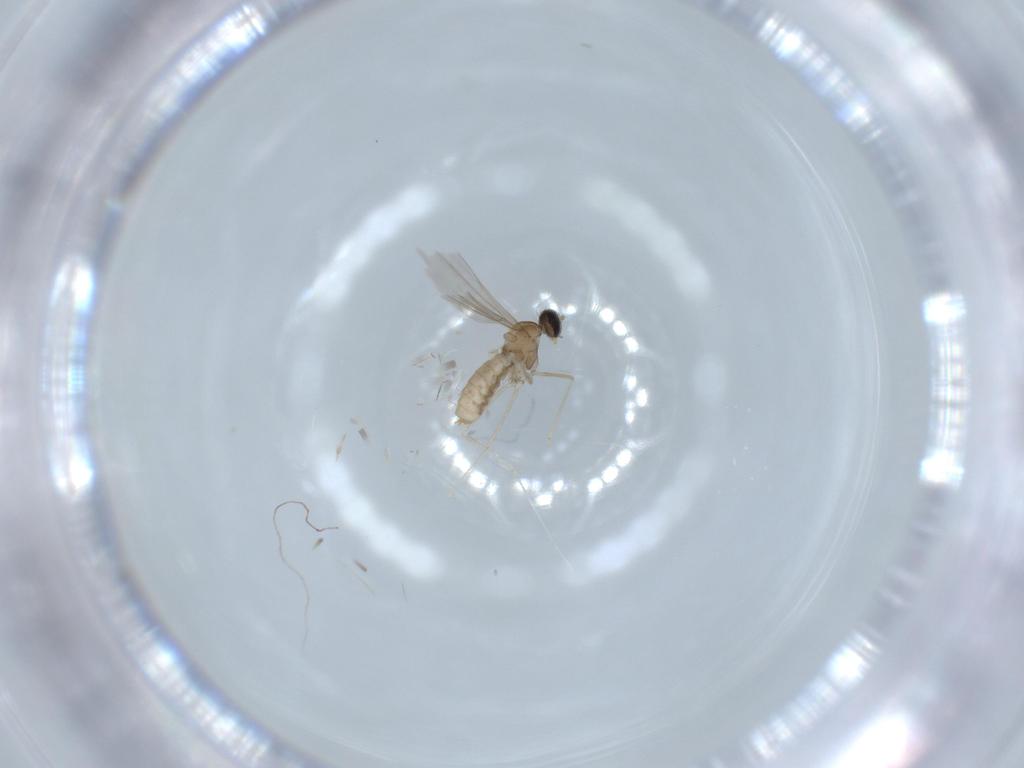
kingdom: Animalia
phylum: Arthropoda
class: Insecta
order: Diptera
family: Cecidomyiidae
